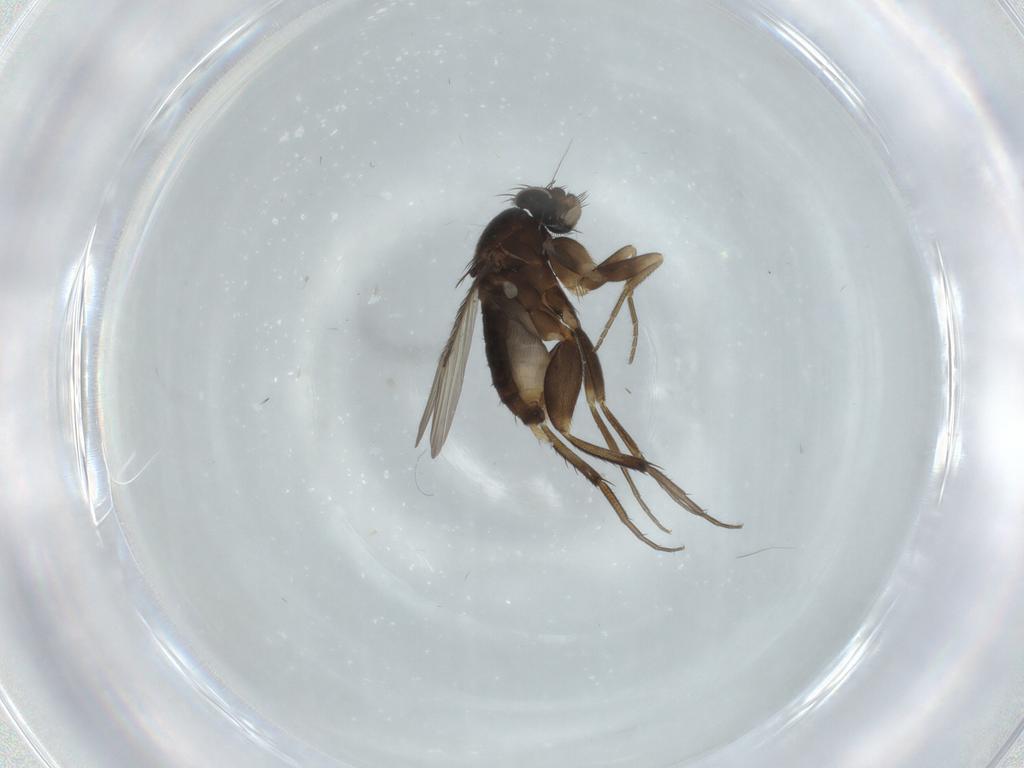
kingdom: Animalia
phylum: Arthropoda
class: Insecta
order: Diptera
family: Phoridae
